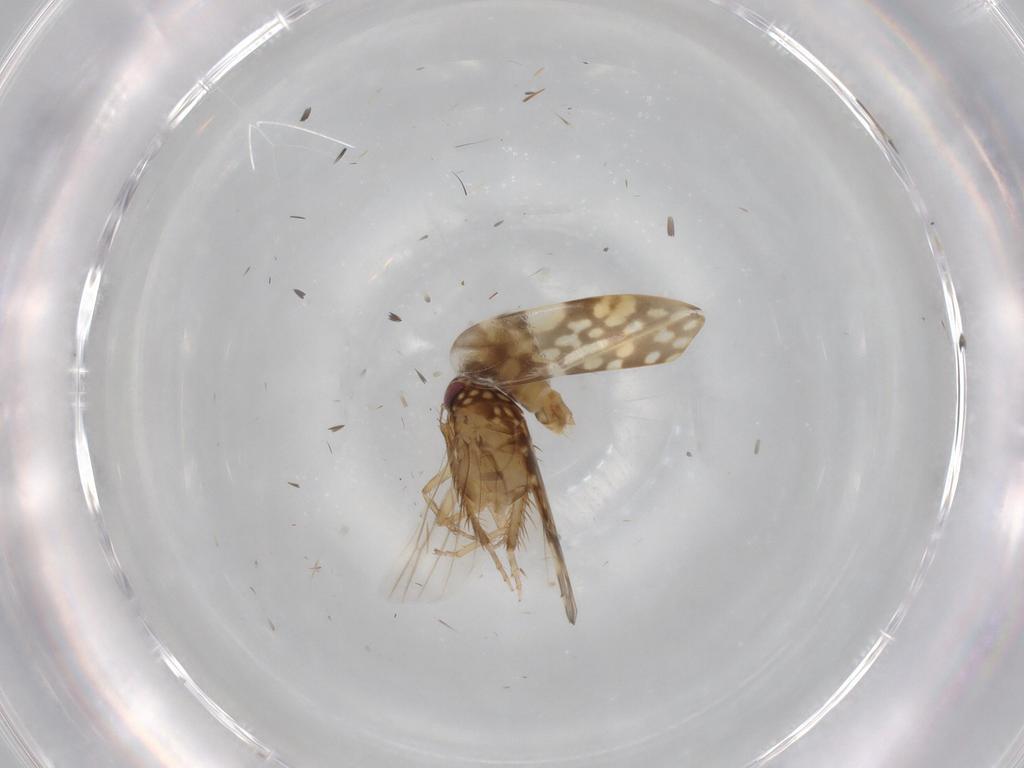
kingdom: Animalia
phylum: Arthropoda
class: Insecta
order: Hemiptera
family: Cicadellidae
